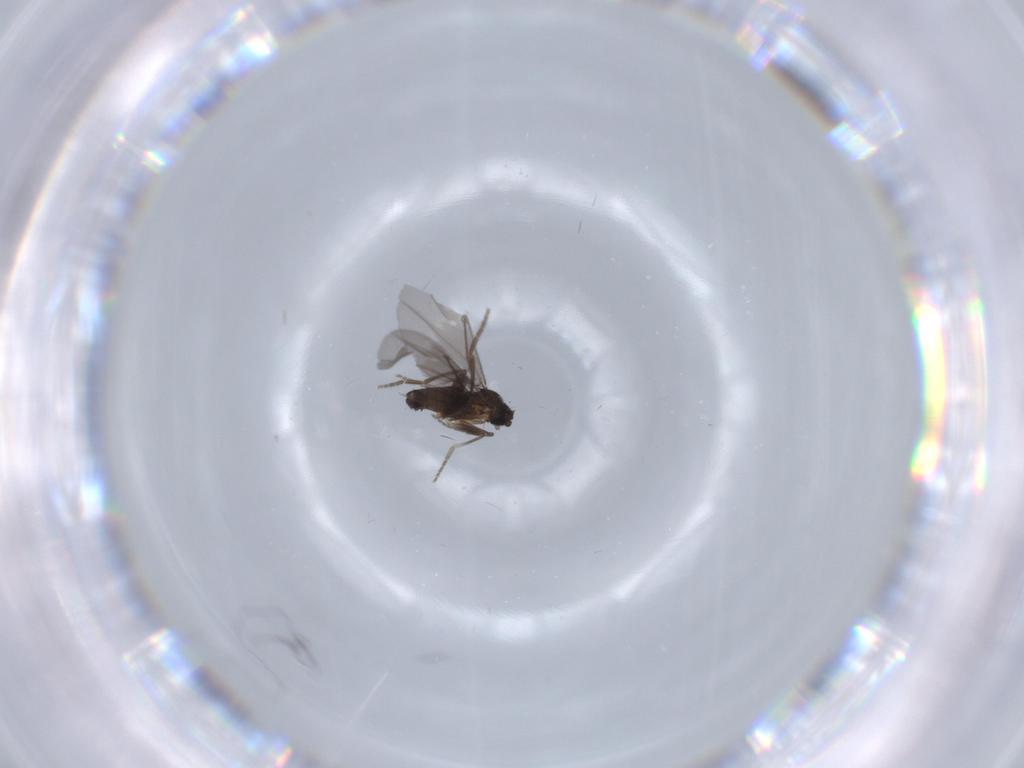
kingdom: Animalia
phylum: Arthropoda
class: Insecta
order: Diptera
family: Phoridae
